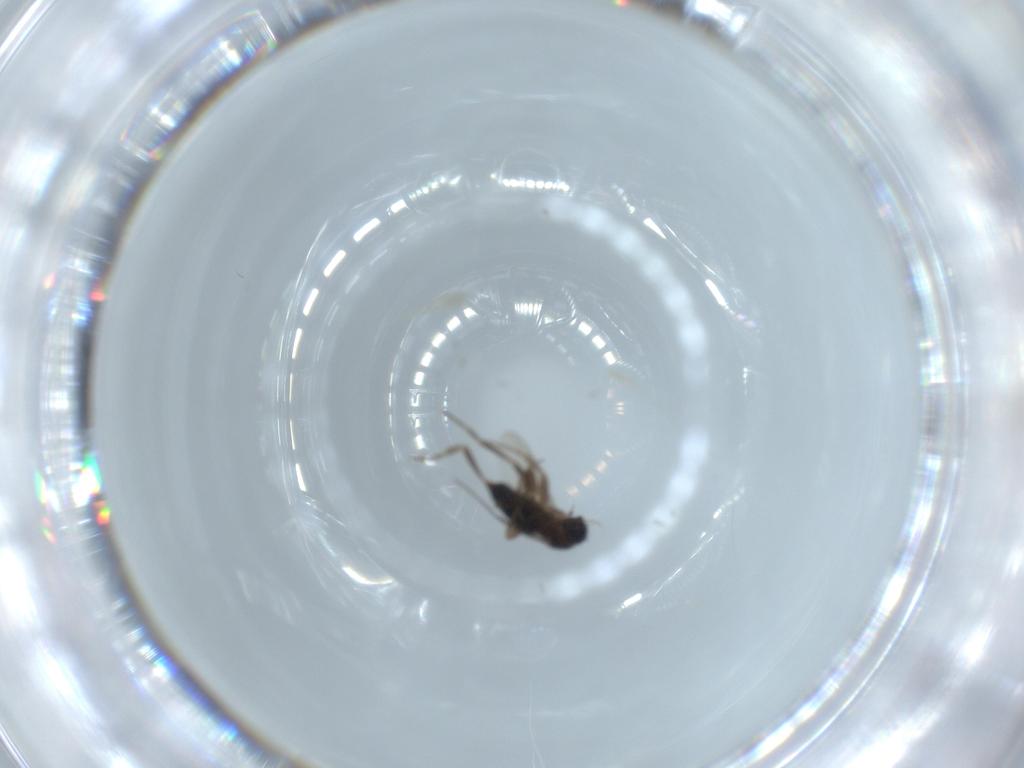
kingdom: Animalia
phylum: Arthropoda
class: Insecta
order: Diptera
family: Phoridae
